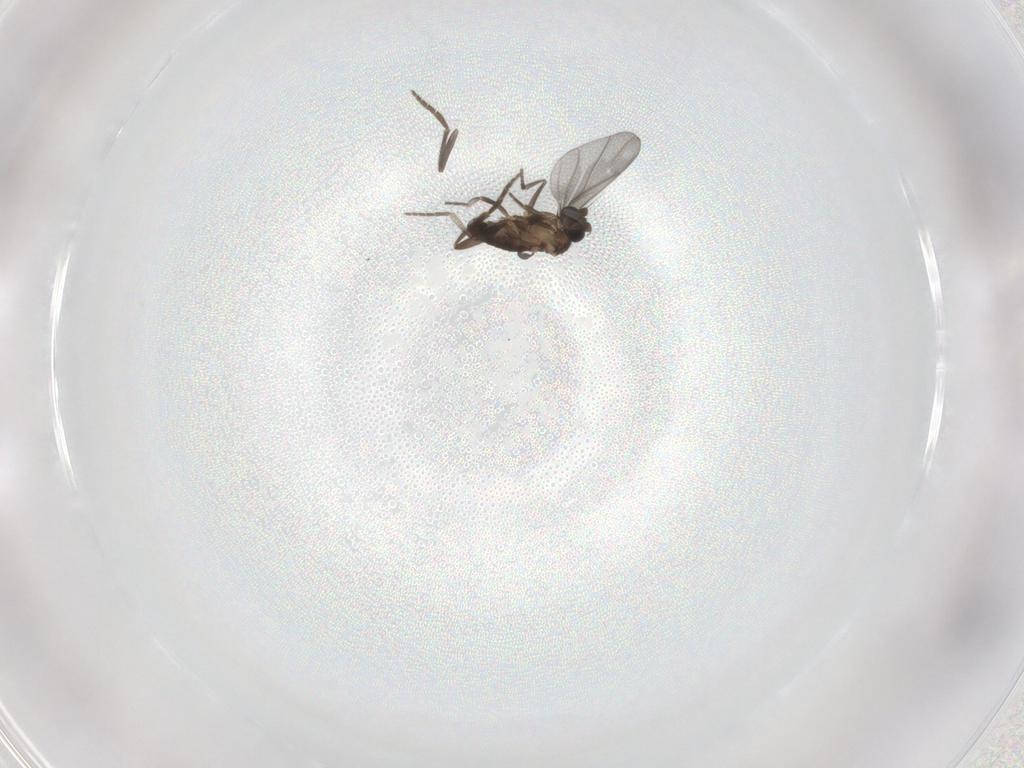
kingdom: Animalia
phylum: Arthropoda
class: Insecta
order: Diptera
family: Phoridae
